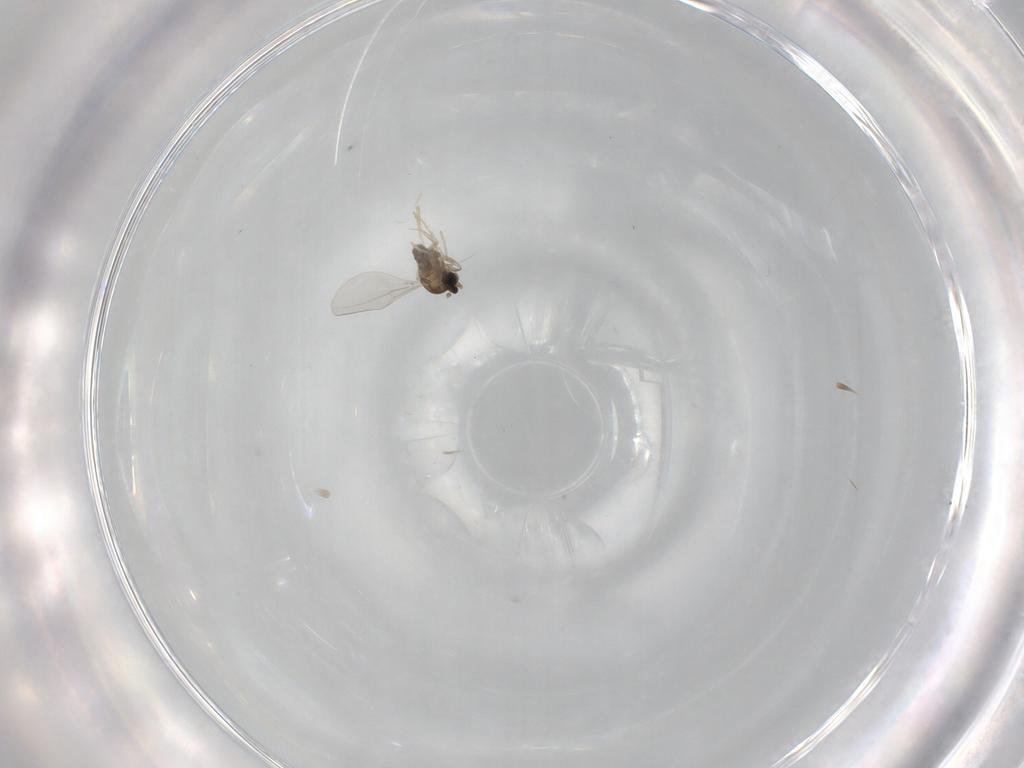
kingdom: Animalia
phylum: Arthropoda
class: Insecta
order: Diptera
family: Cecidomyiidae
